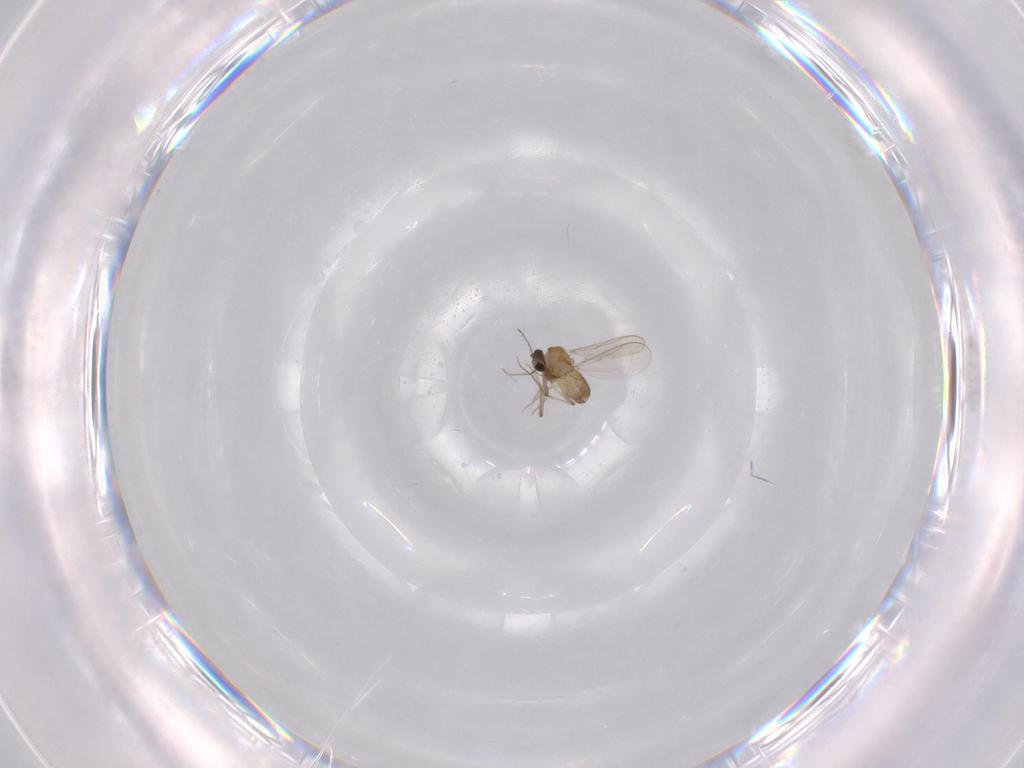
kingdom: Animalia
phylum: Arthropoda
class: Insecta
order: Diptera
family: Chironomidae
